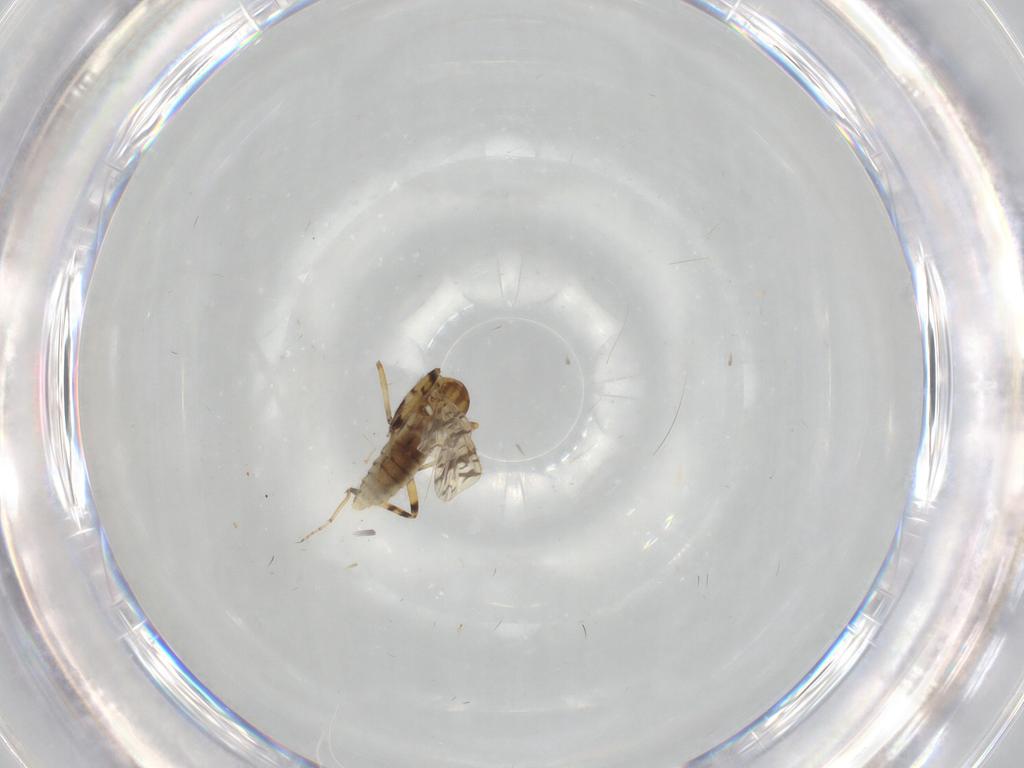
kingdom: Animalia
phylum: Arthropoda
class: Insecta
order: Diptera
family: Ceratopogonidae
